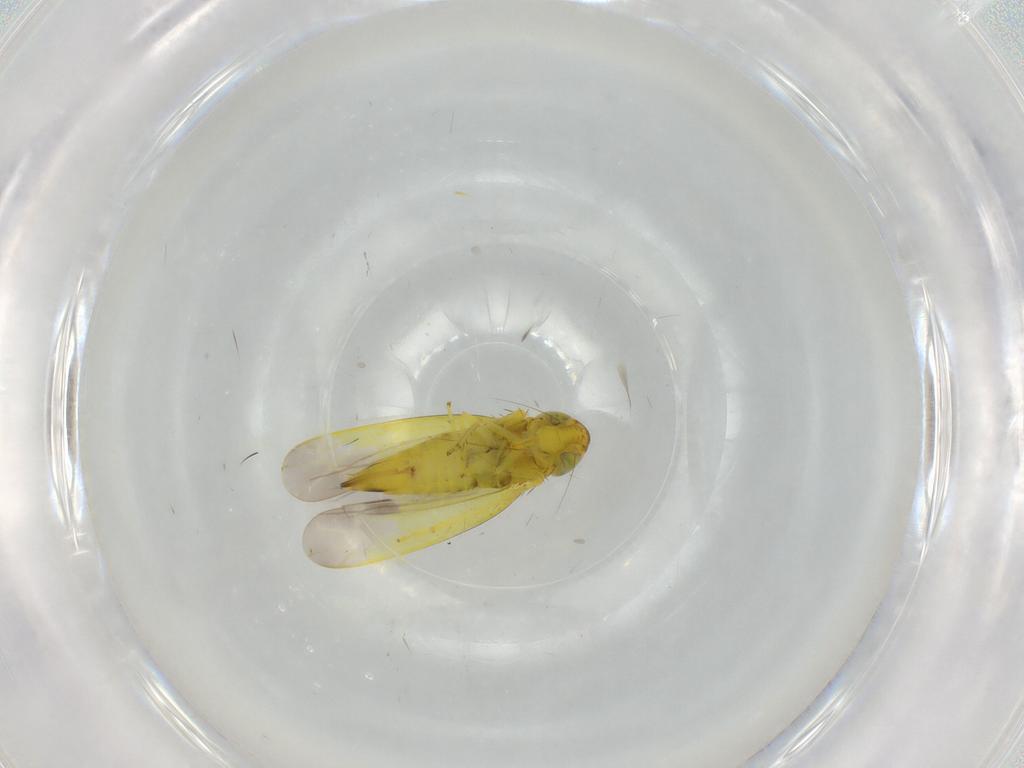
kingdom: Animalia
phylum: Arthropoda
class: Insecta
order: Hemiptera
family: Cicadellidae
